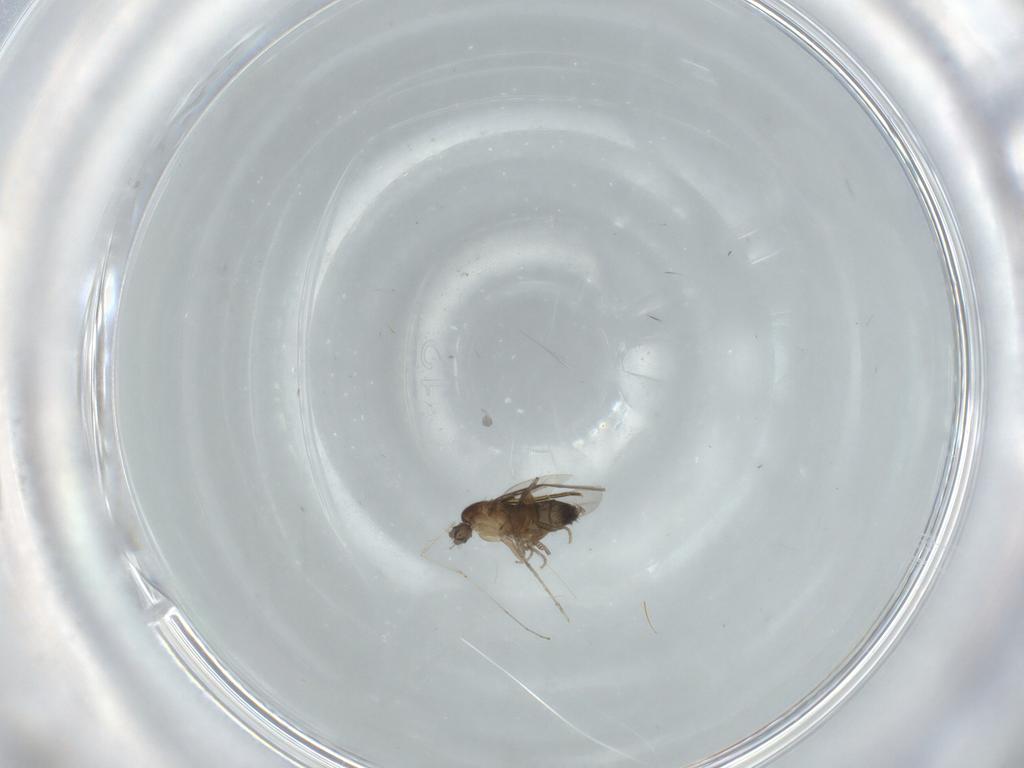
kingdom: Animalia
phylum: Arthropoda
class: Insecta
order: Diptera
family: Phoridae
